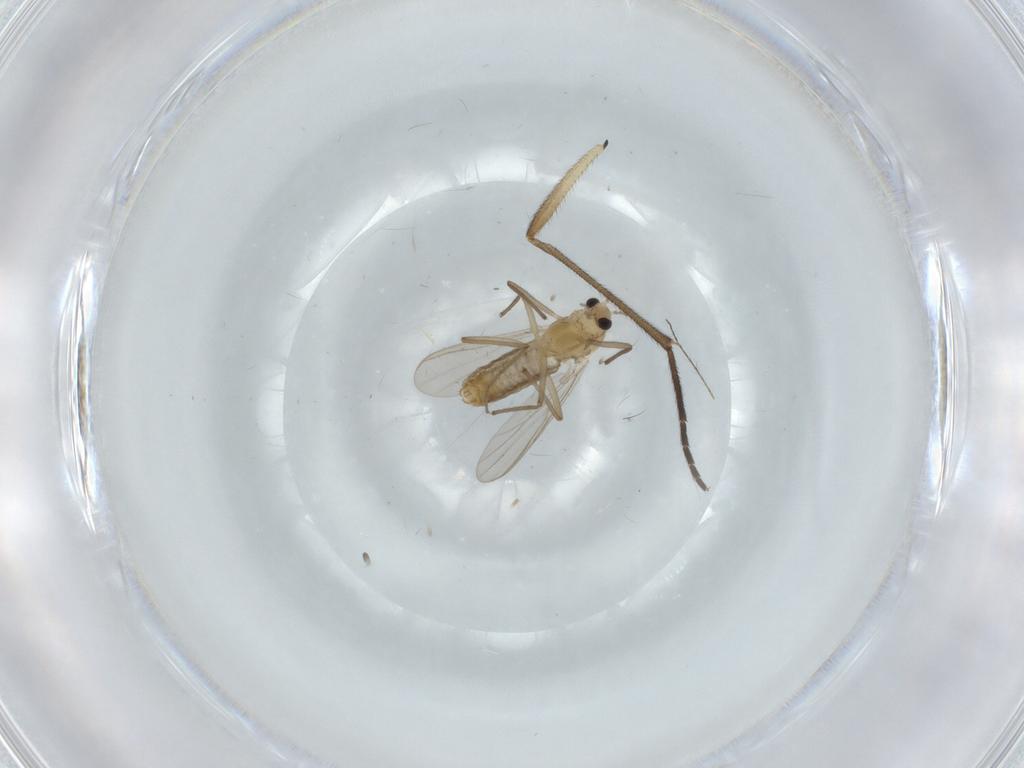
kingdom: Animalia
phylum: Arthropoda
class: Insecta
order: Diptera
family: Chironomidae
